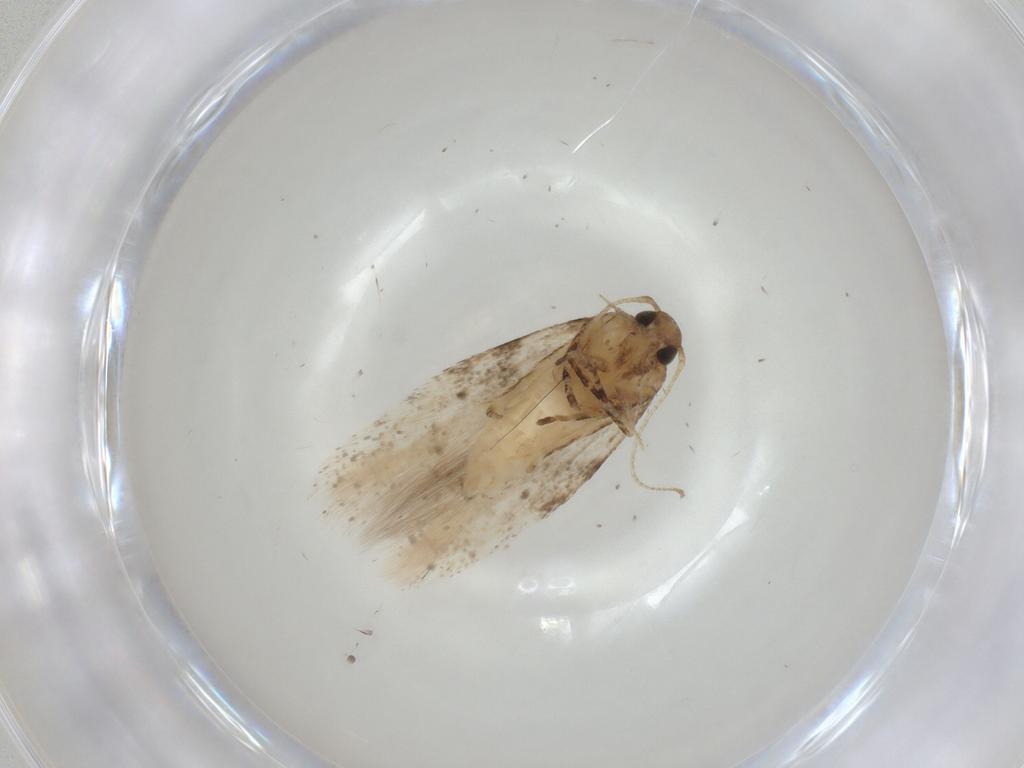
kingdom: Animalia
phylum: Arthropoda
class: Insecta
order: Lepidoptera
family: Gelechiidae
